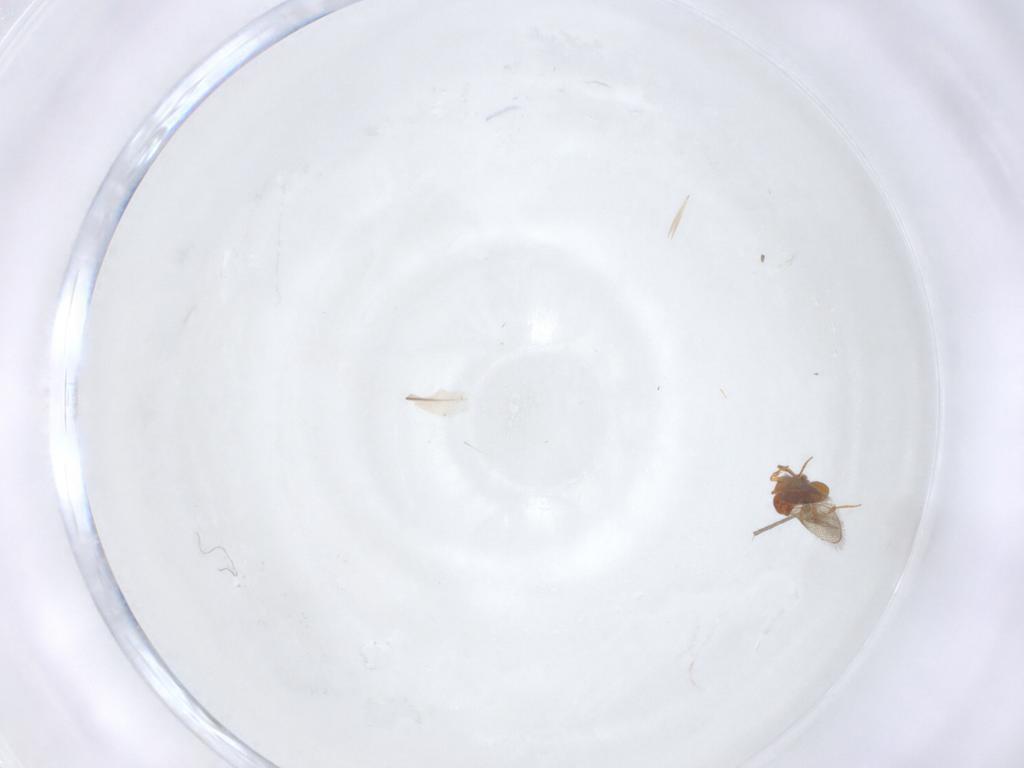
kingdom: Animalia
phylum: Arthropoda
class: Insecta
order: Hymenoptera
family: Platygastridae
